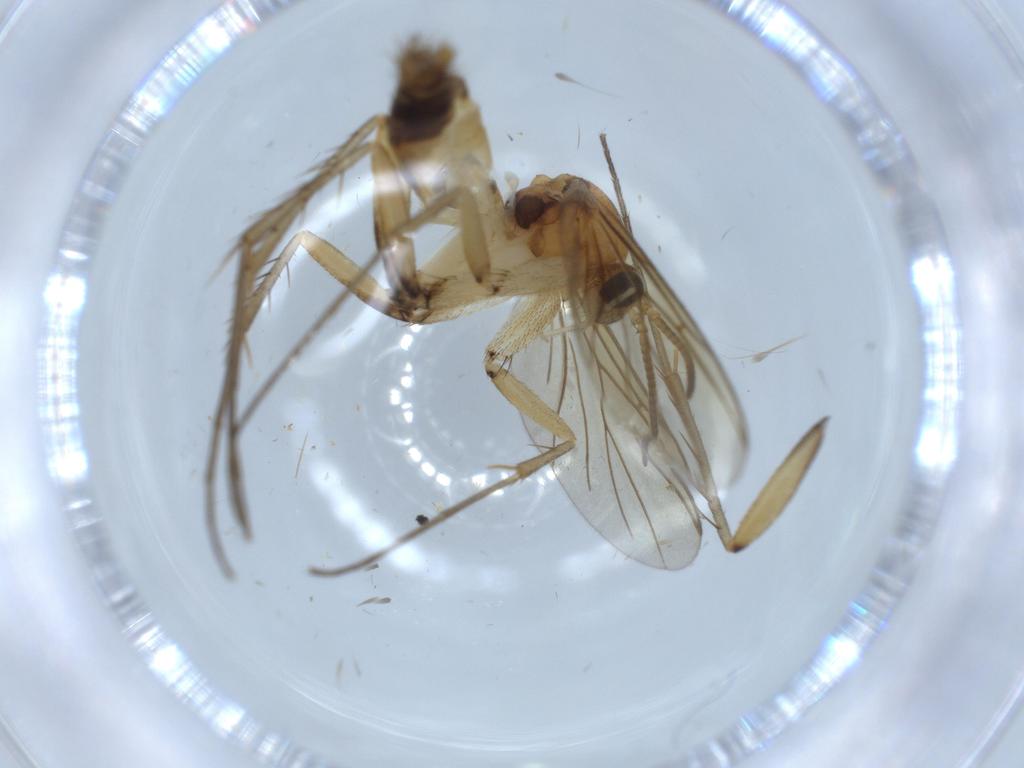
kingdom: Animalia
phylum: Arthropoda
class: Insecta
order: Diptera
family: Mycetophilidae
